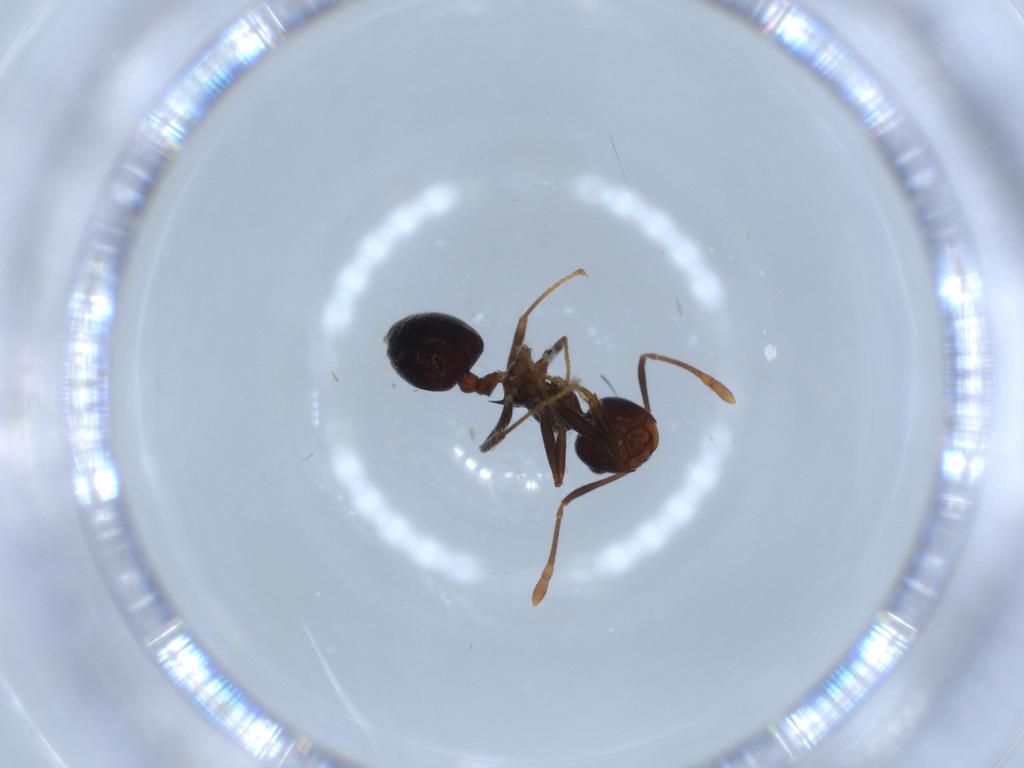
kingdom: Animalia
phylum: Arthropoda
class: Insecta
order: Hymenoptera
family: Formicidae
